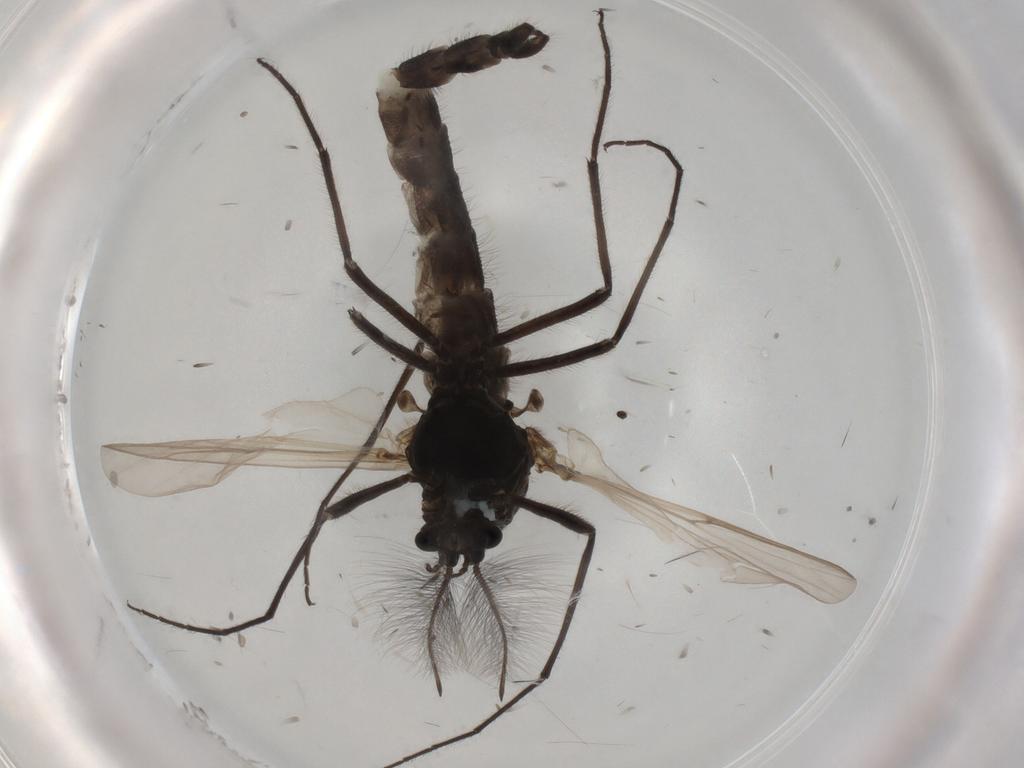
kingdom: Animalia
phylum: Arthropoda
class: Insecta
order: Diptera
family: Chironomidae
